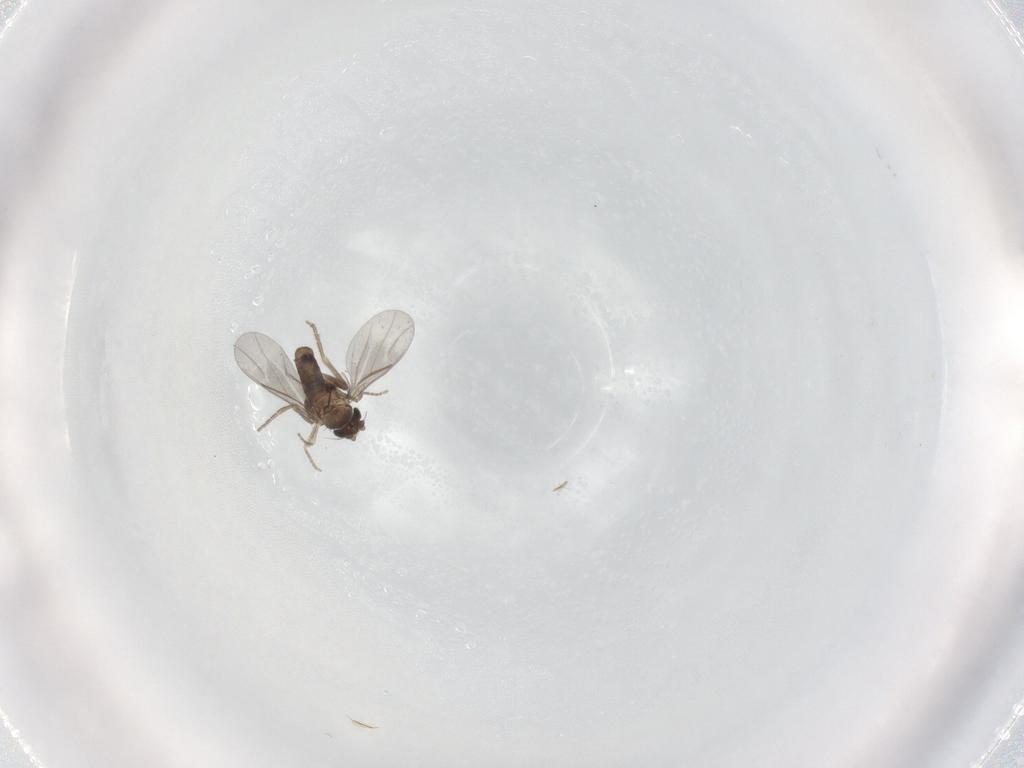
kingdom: Animalia
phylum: Arthropoda
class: Insecta
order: Diptera
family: Cecidomyiidae
